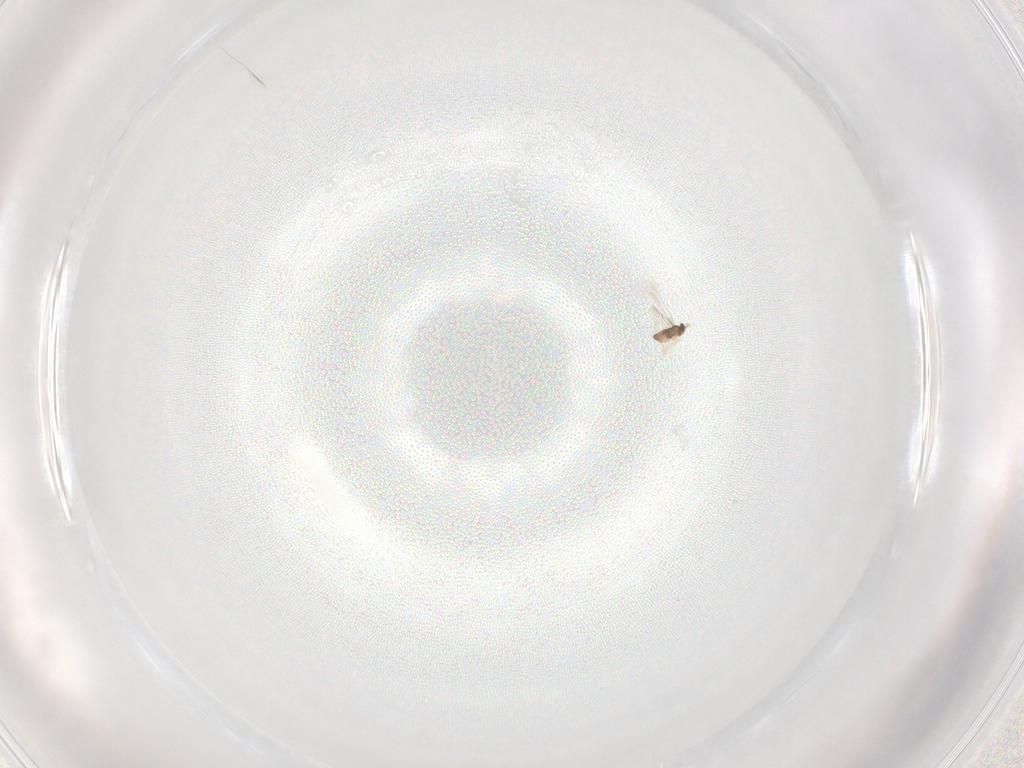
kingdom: Animalia
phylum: Arthropoda
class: Insecta
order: Hymenoptera
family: Mymaridae
